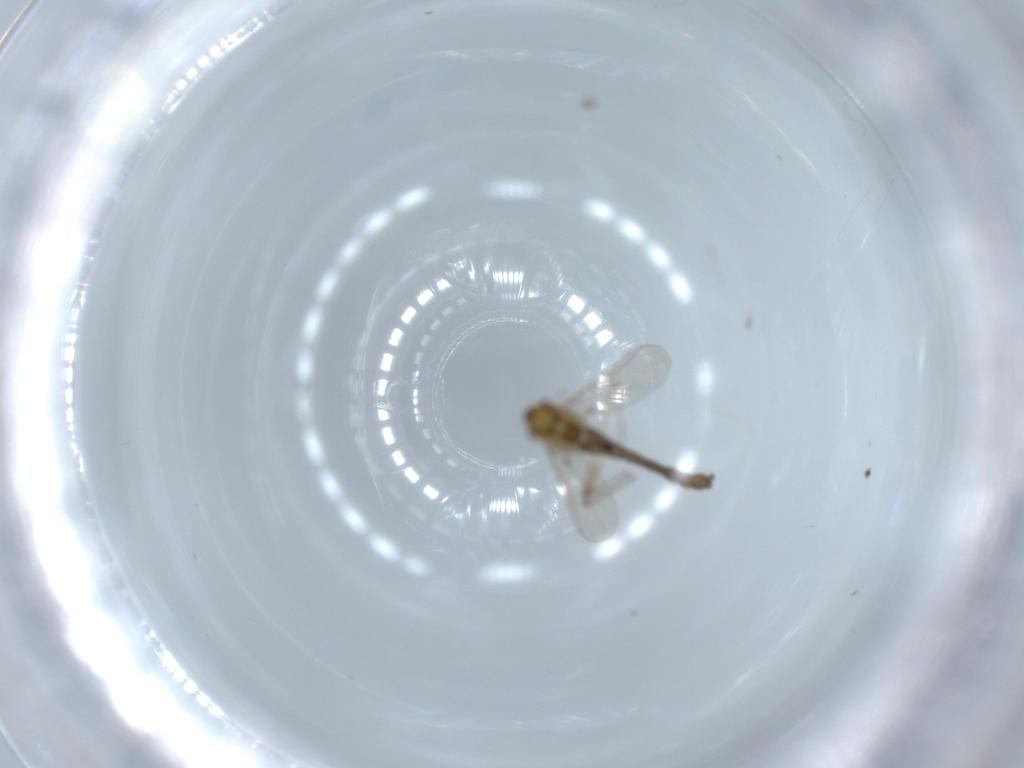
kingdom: Animalia
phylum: Arthropoda
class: Insecta
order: Diptera
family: Chironomidae
